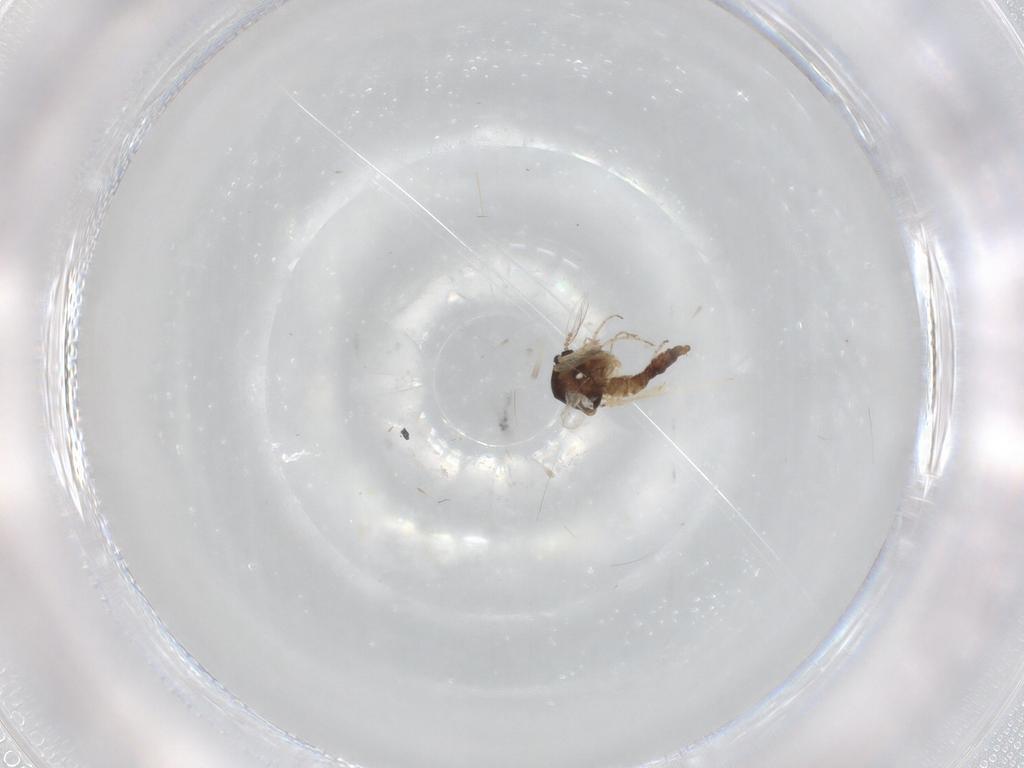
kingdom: Animalia
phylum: Arthropoda
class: Insecta
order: Diptera
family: Ceratopogonidae
